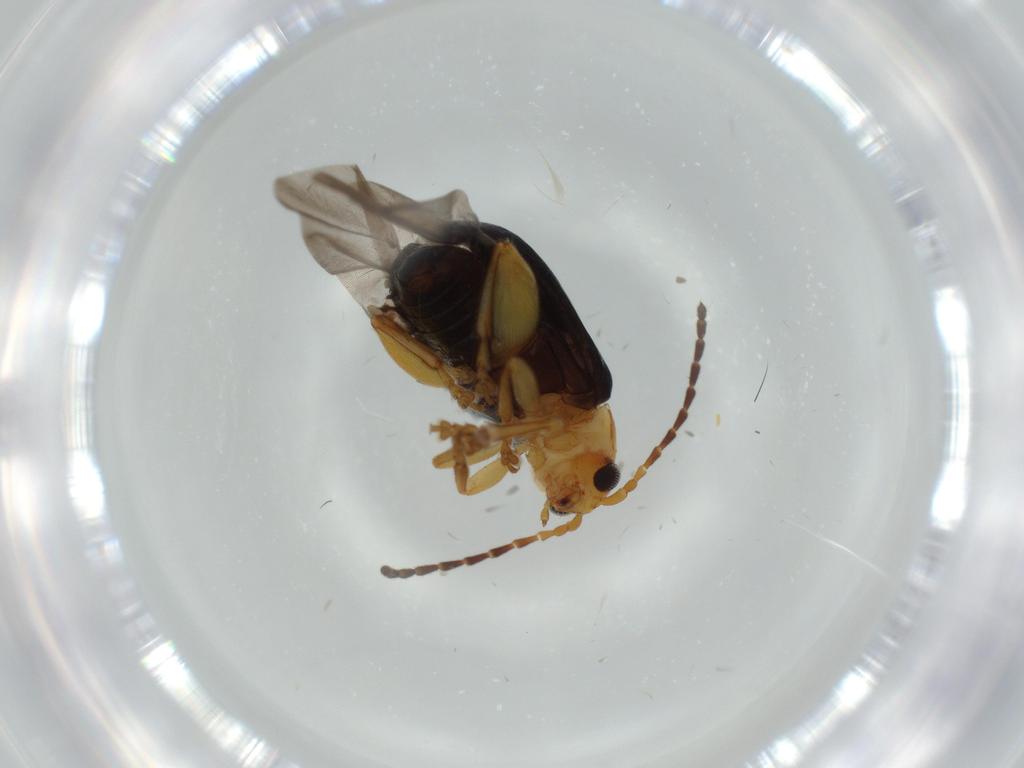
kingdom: Animalia
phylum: Arthropoda
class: Insecta
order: Coleoptera
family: Chrysomelidae
